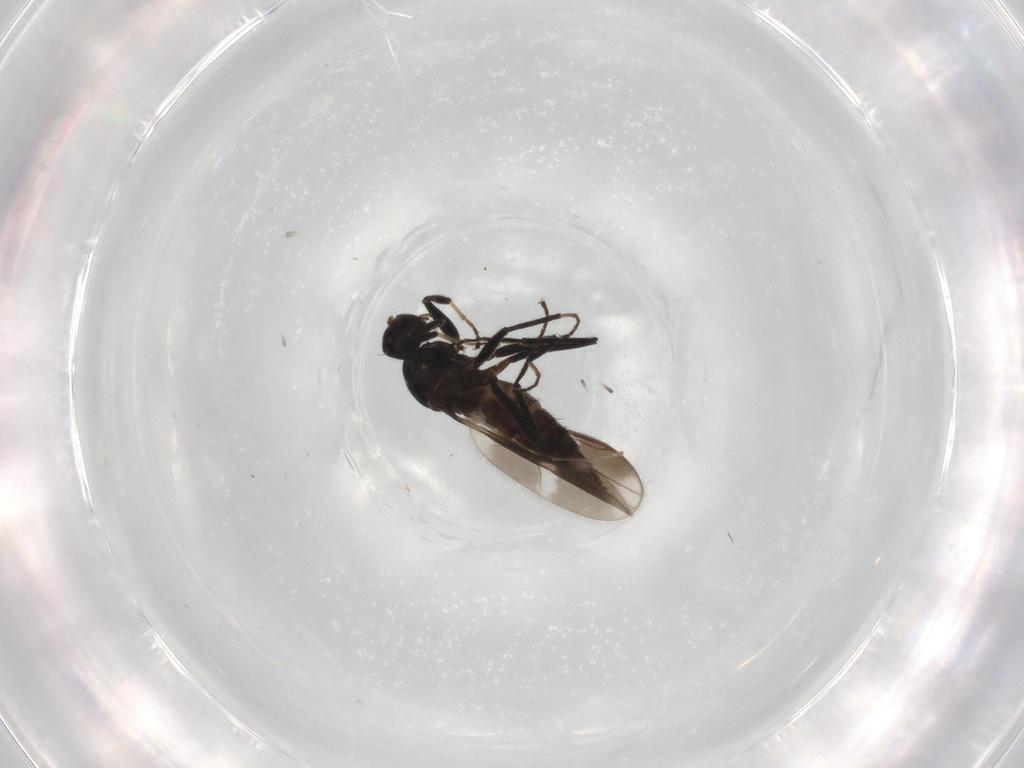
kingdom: Animalia
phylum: Arthropoda
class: Insecta
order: Diptera
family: Hybotidae
